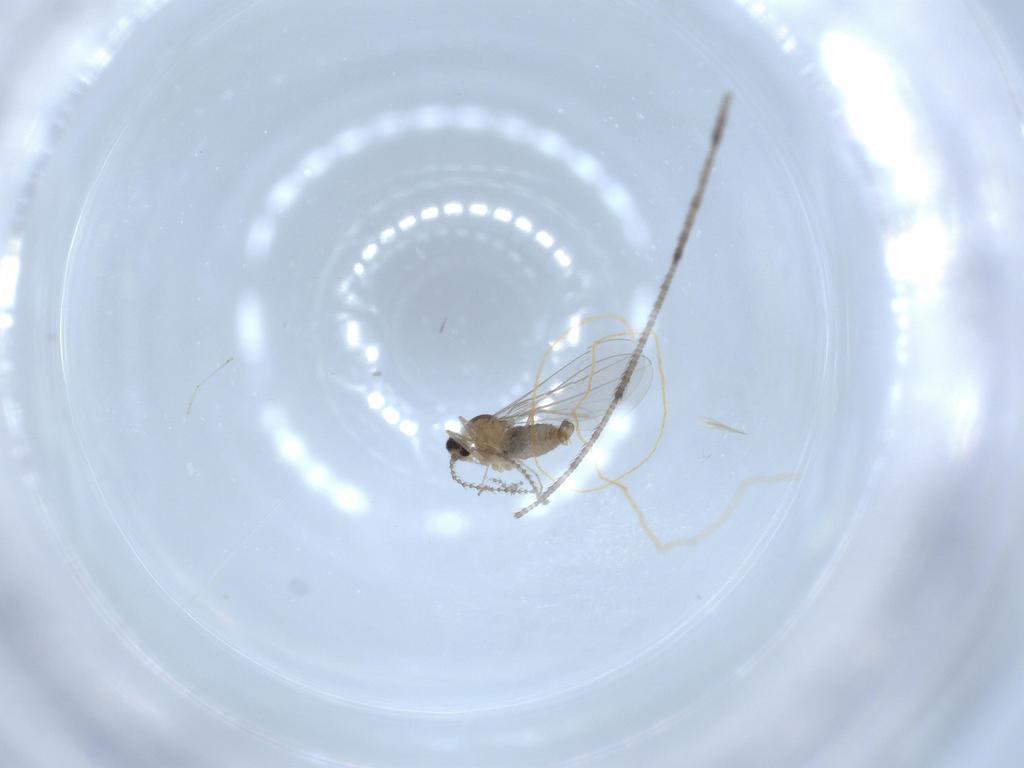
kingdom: Animalia
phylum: Arthropoda
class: Insecta
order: Diptera
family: Cecidomyiidae
